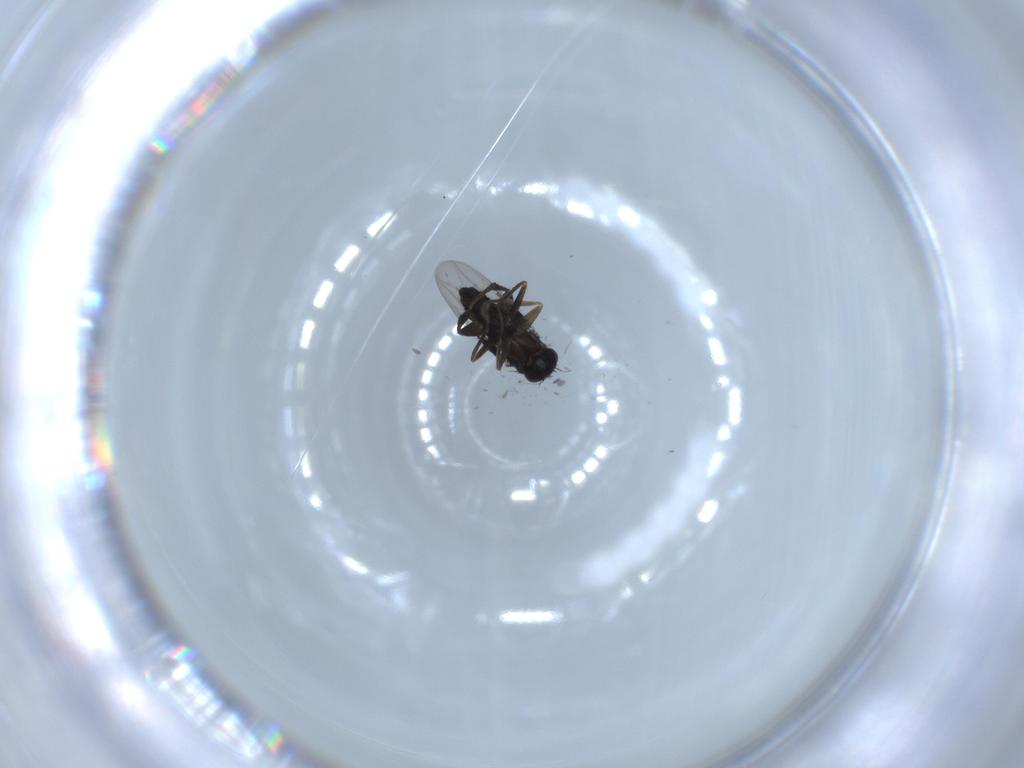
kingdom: Animalia
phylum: Arthropoda
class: Insecta
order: Diptera
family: Phoridae
